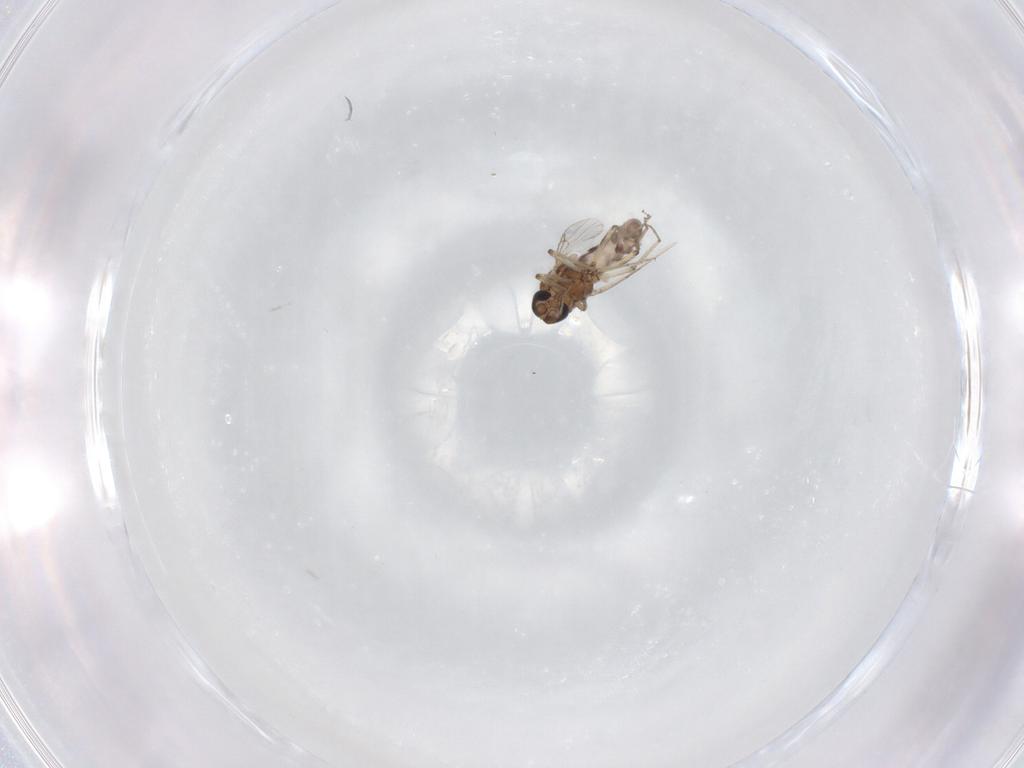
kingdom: Animalia
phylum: Arthropoda
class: Insecta
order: Diptera
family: Ceratopogonidae
